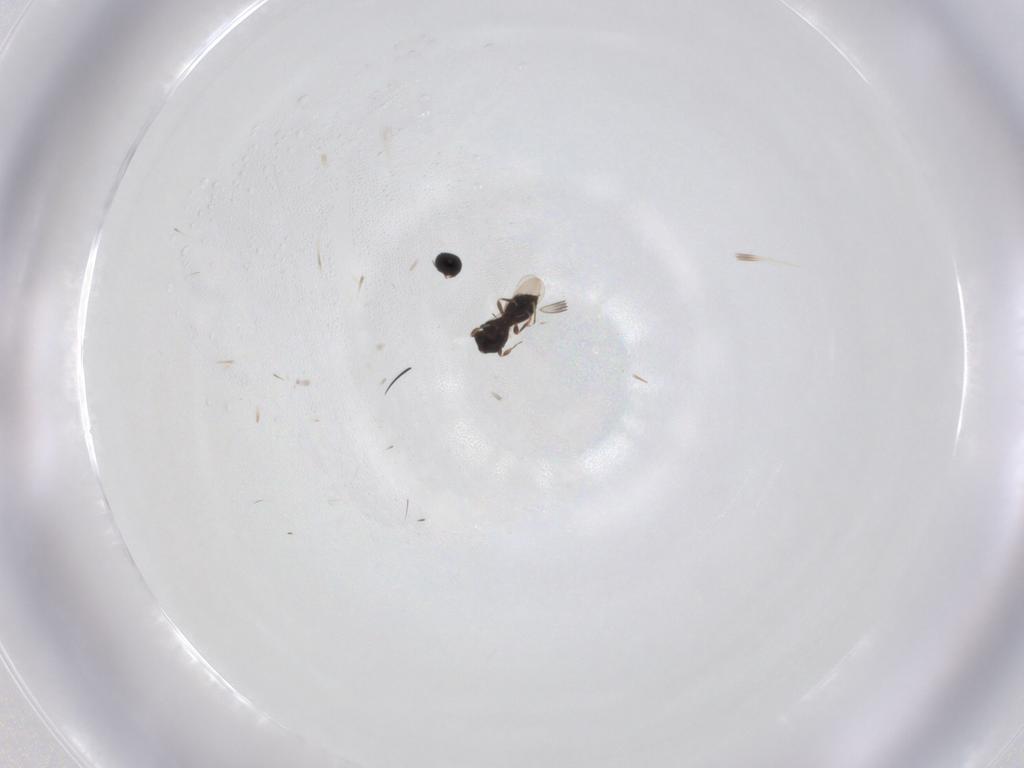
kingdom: Animalia
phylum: Arthropoda
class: Insecta
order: Hymenoptera
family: Scelionidae
